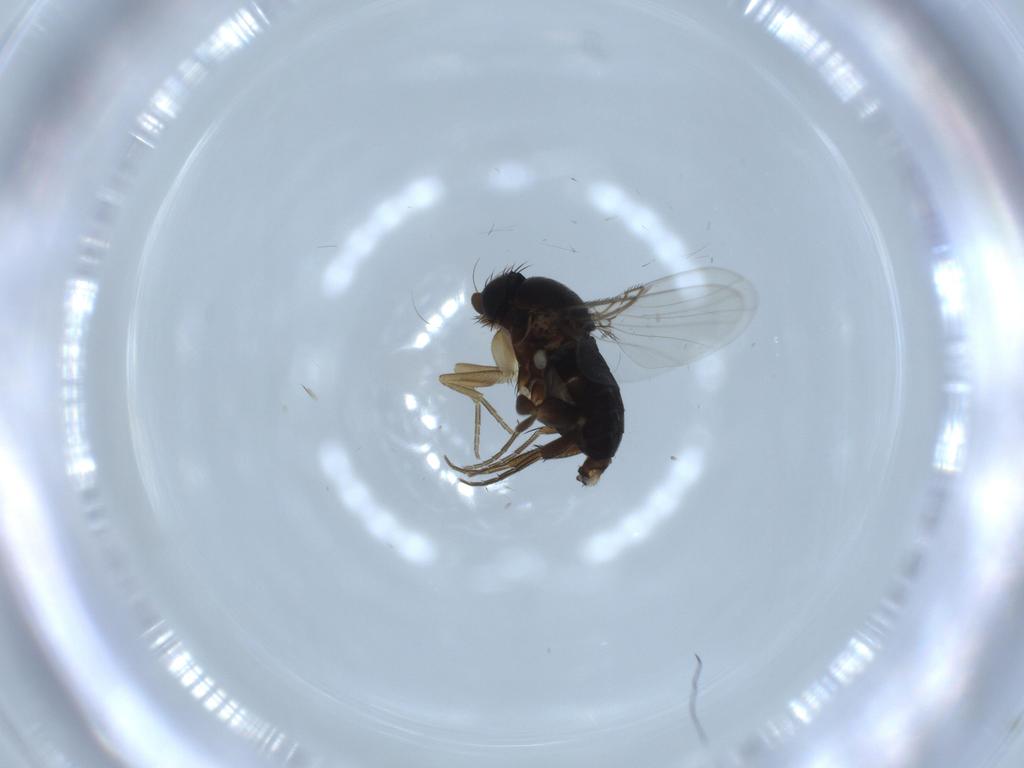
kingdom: Animalia
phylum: Arthropoda
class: Insecta
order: Diptera
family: Phoridae
